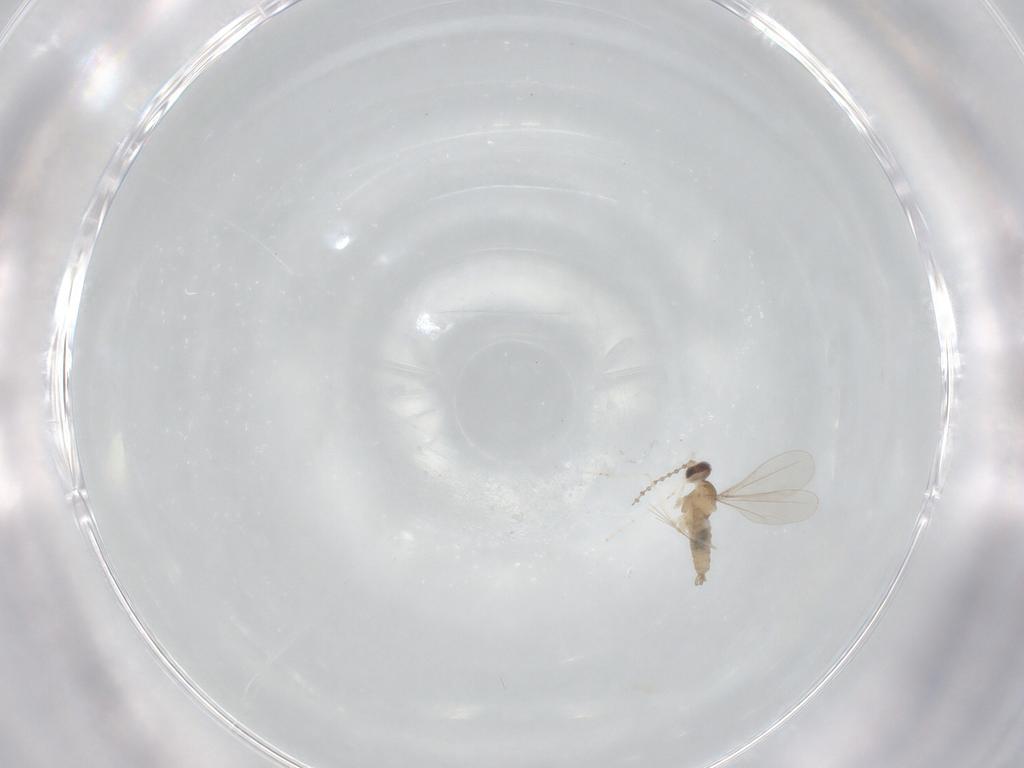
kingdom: Animalia
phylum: Arthropoda
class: Insecta
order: Diptera
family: Cecidomyiidae
